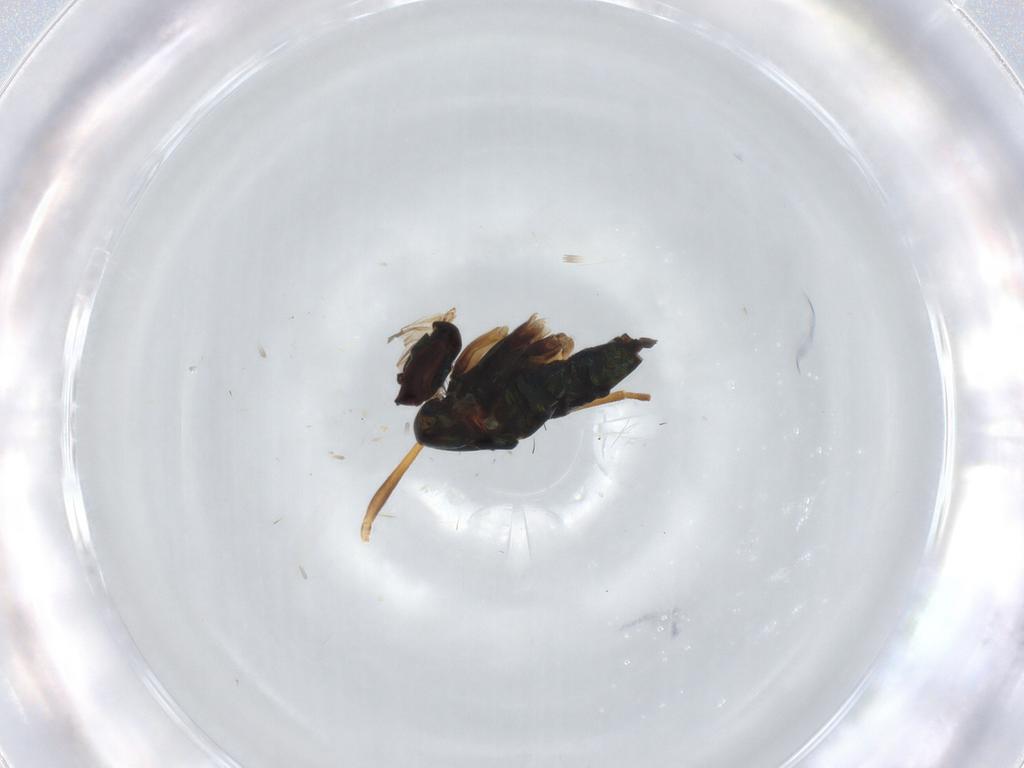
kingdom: Animalia
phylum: Arthropoda
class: Insecta
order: Diptera
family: Dolichopodidae
